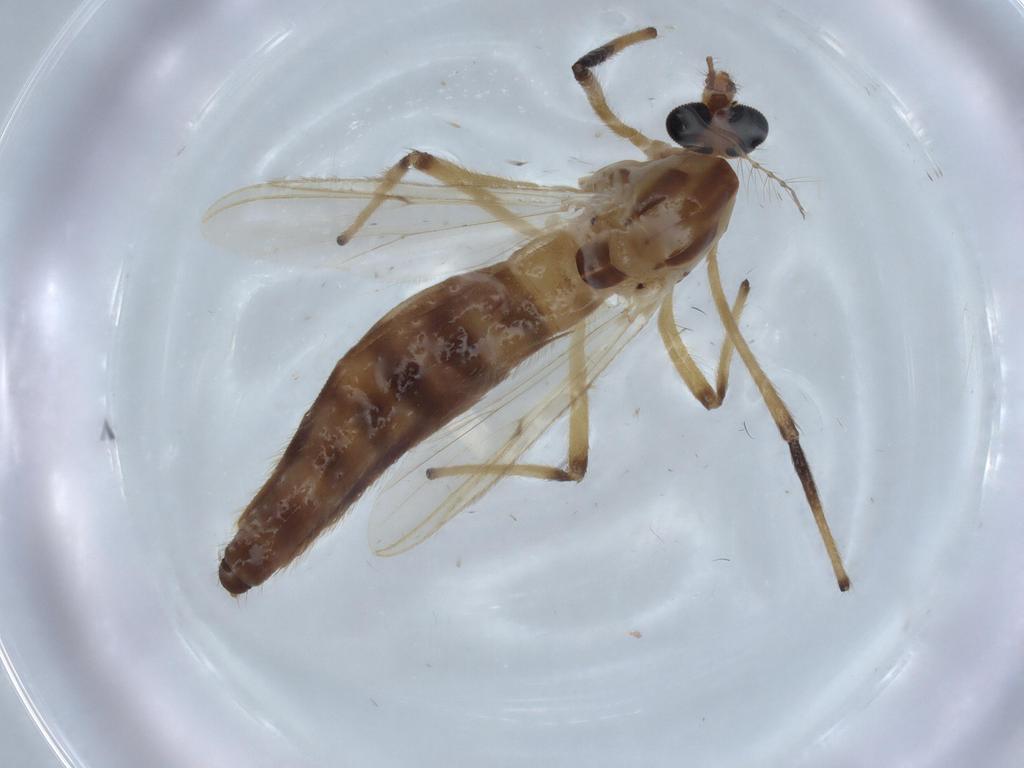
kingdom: Animalia
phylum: Arthropoda
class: Insecta
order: Diptera
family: Psychodidae
